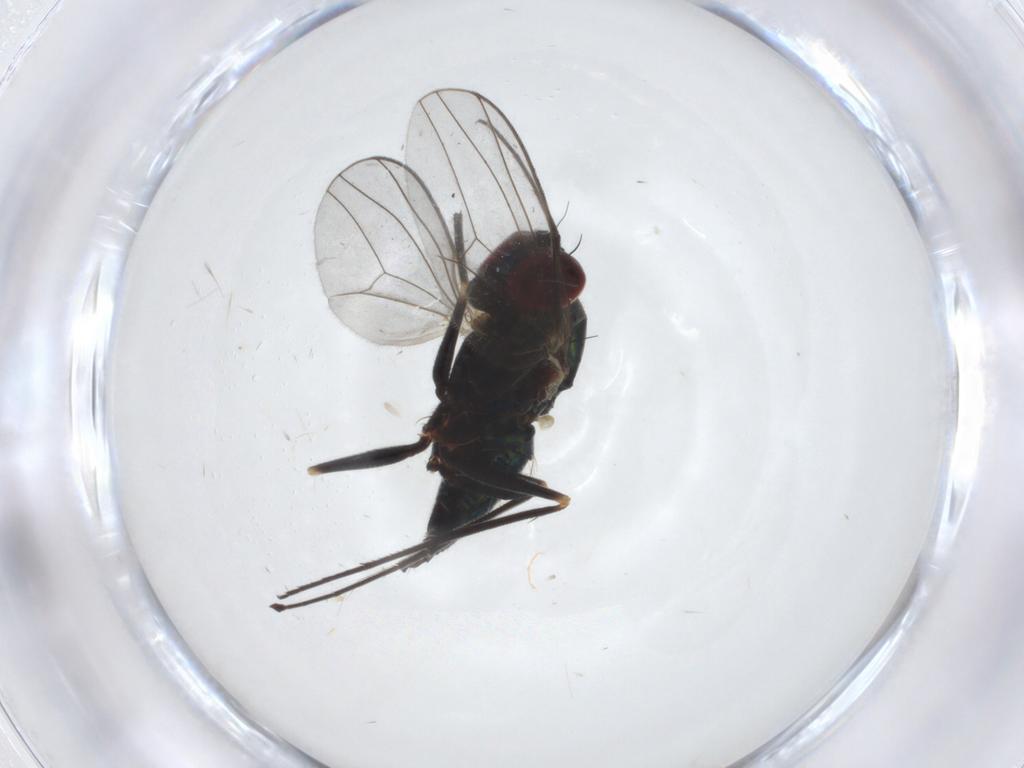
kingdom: Animalia
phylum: Arthropoda
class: Insecta
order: Diptera
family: Dolichopodidae
